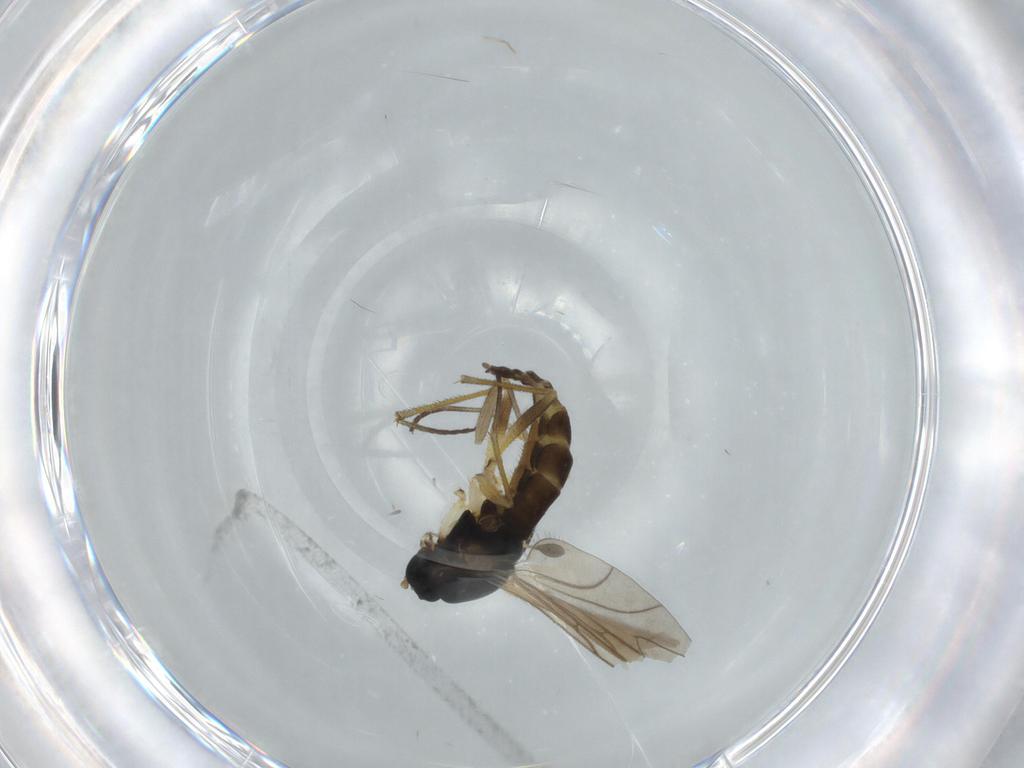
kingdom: Animalia
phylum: Arthropoda
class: Insecta
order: Diptera
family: Sciaridae
